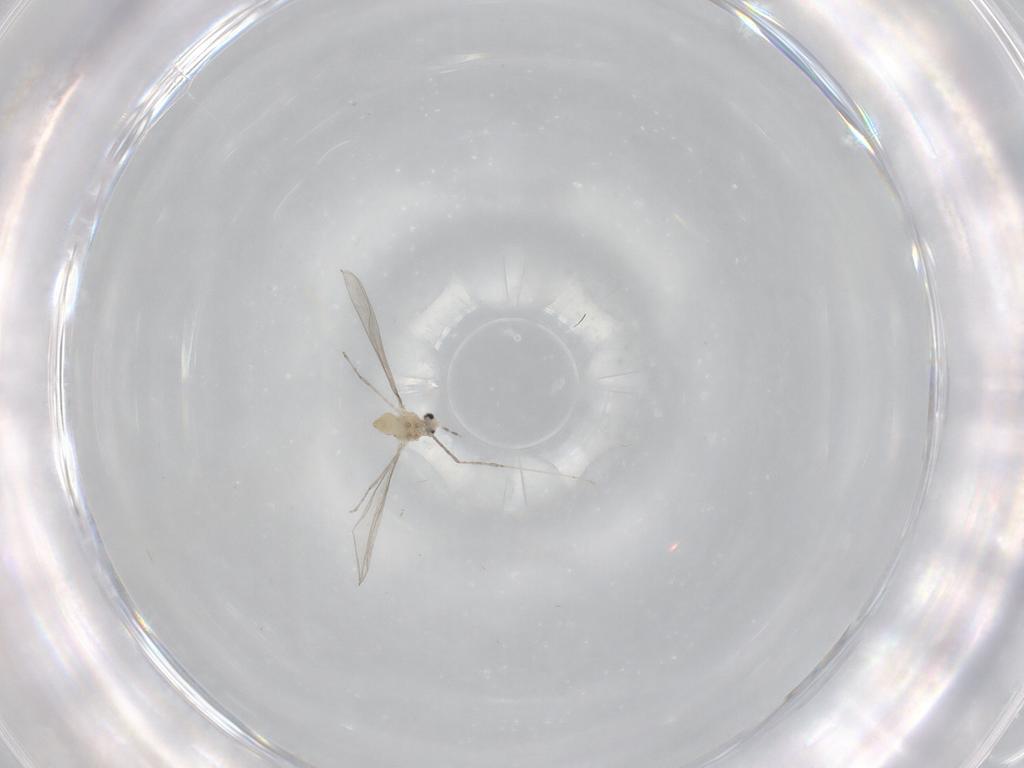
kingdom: Animalia
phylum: Arthropoda
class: Insecta
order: Diptera
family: Cecidomyiidae
